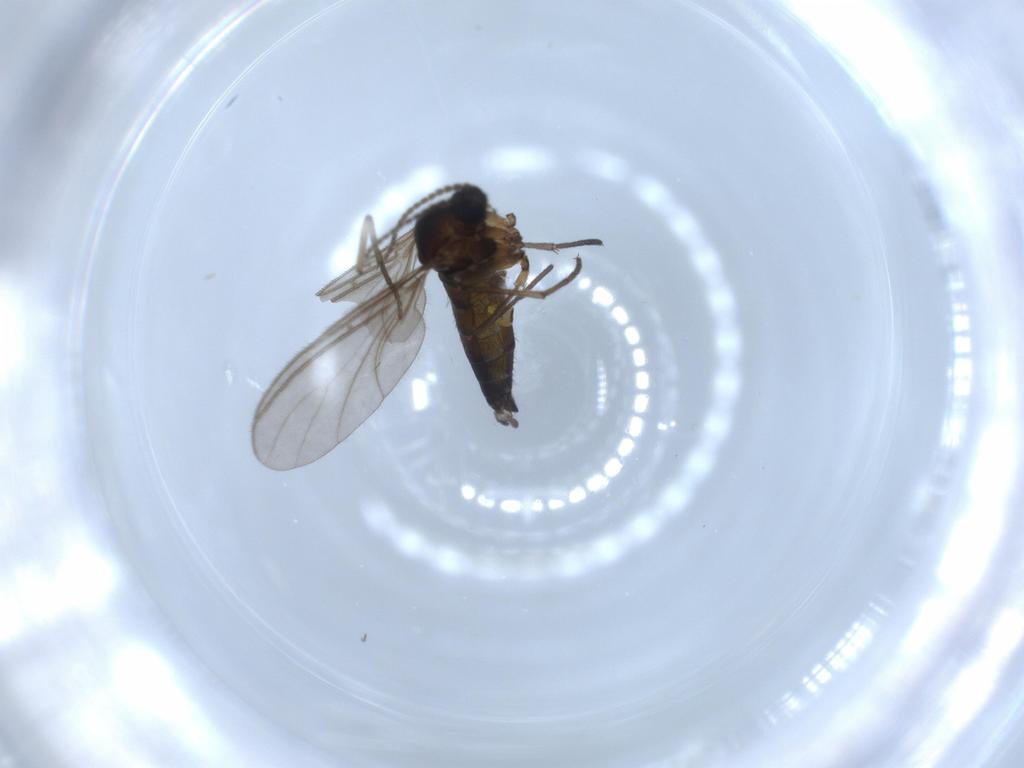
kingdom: Animalia
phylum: Arthropoda
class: Insecta
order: Diptera
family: Sciaridae
